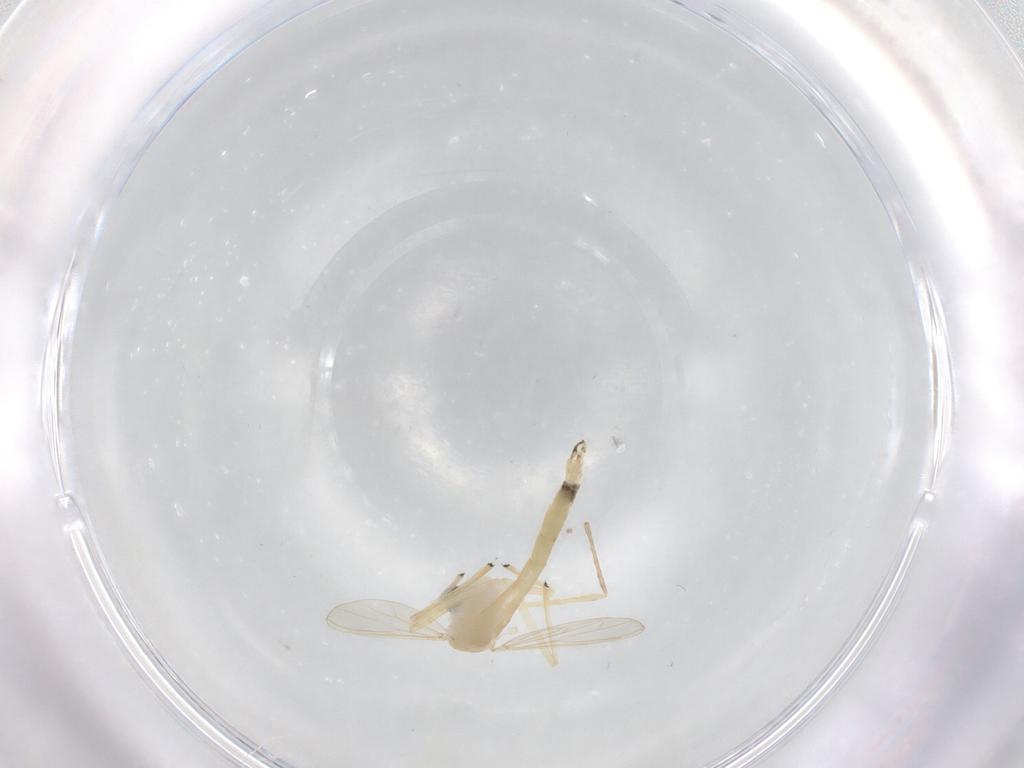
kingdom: Animalia
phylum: Arthropoda
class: Insecta
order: Diptera
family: Chironomidae
